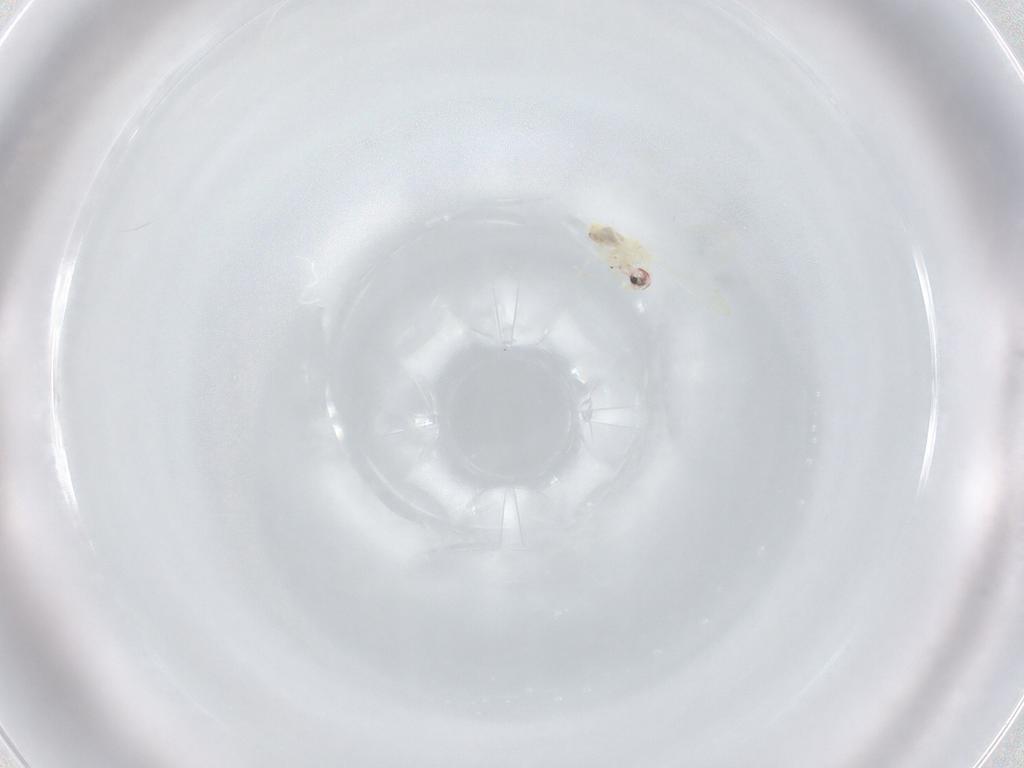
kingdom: Animalia
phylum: Arthropoda
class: Insecta
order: Hemiptera
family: Aleyrodidae
